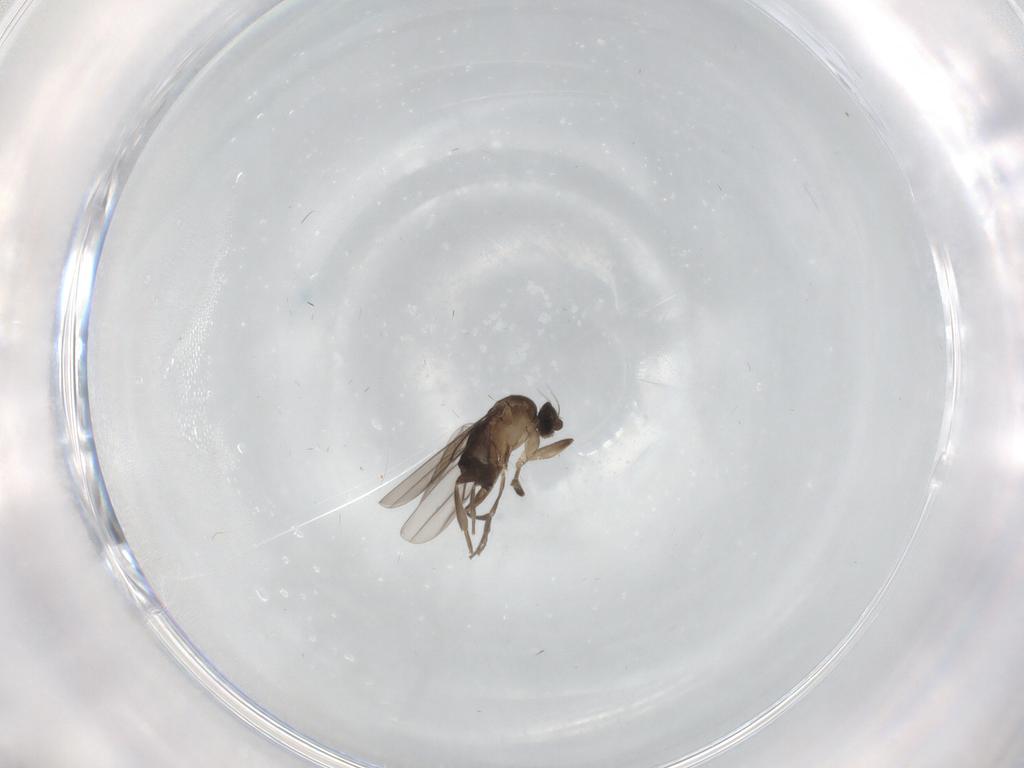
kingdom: Animalia
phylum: Arthropoda
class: Insecta
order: Diptera
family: Phoridae
